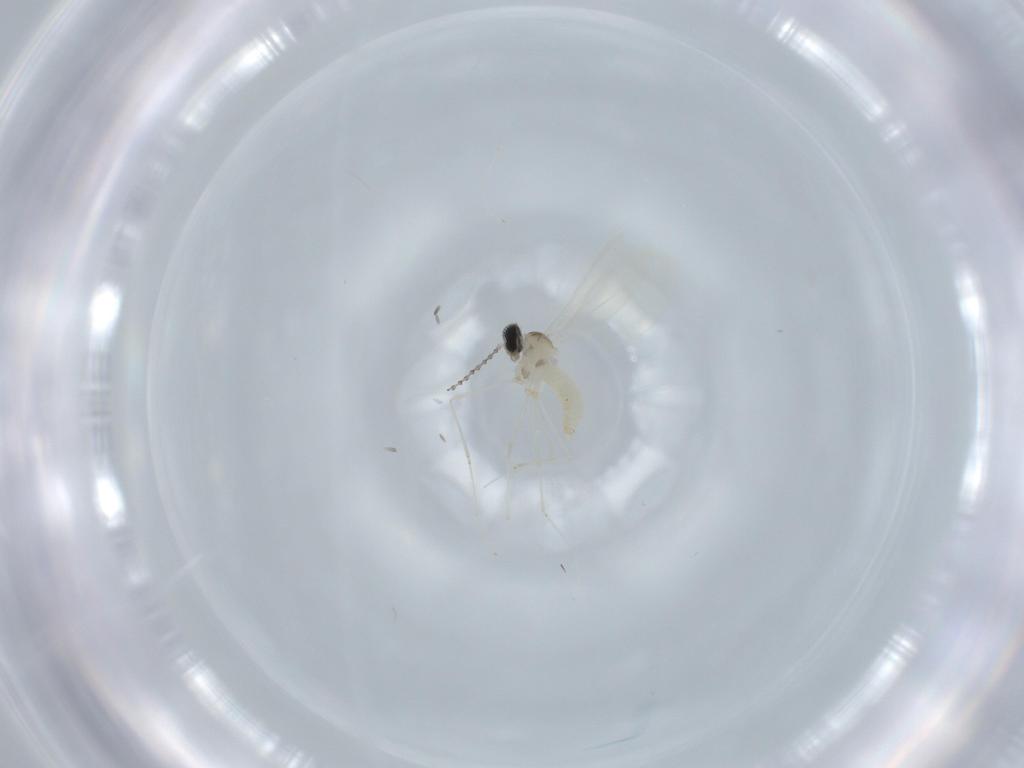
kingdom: Animalia
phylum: Arthropoda
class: Insecta
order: Diptera
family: Cecidomyiidae
